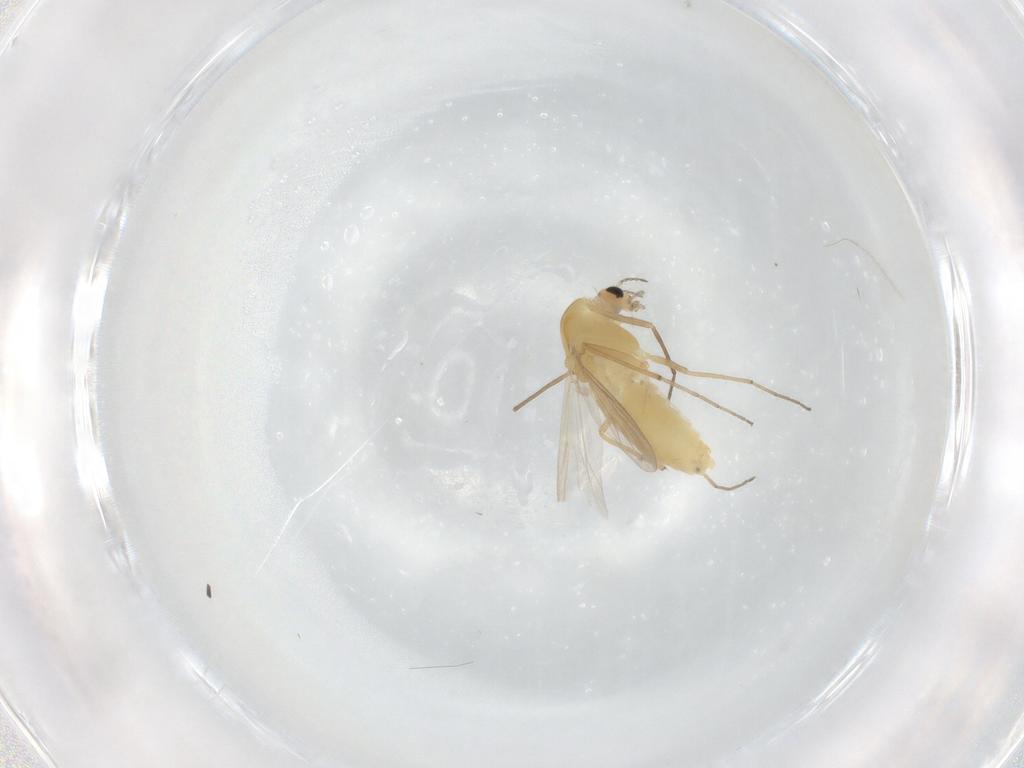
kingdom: Animalia
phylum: Arthropoda
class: Insecta
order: Diptera
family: Chironomidae
